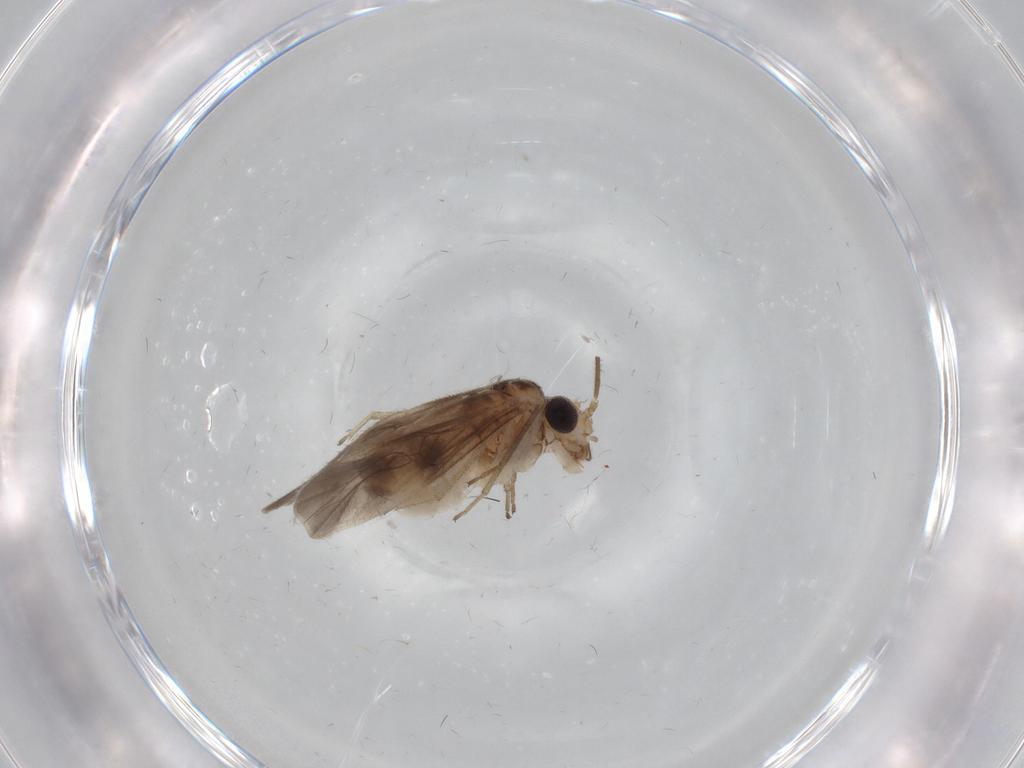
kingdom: Animalia
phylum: Arthropoda
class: Insecta
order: Psocodea
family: Caeciliusidae
